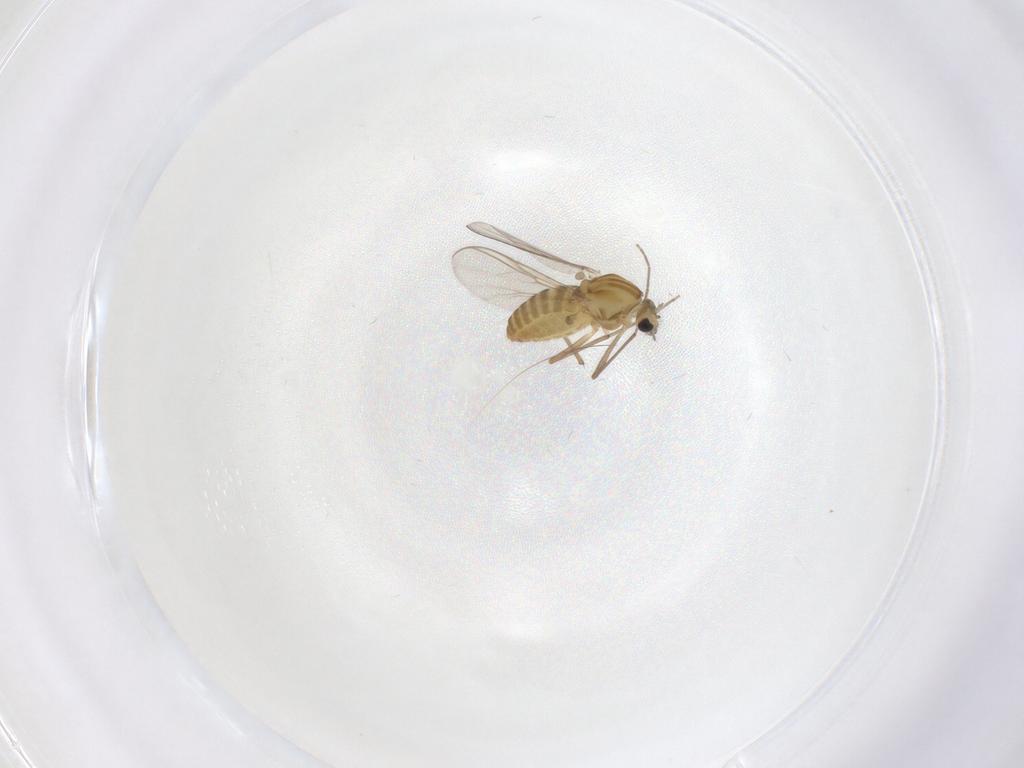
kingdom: Animalia
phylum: Arthropoda
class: Insecta
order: Diptera
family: Chironomidae
